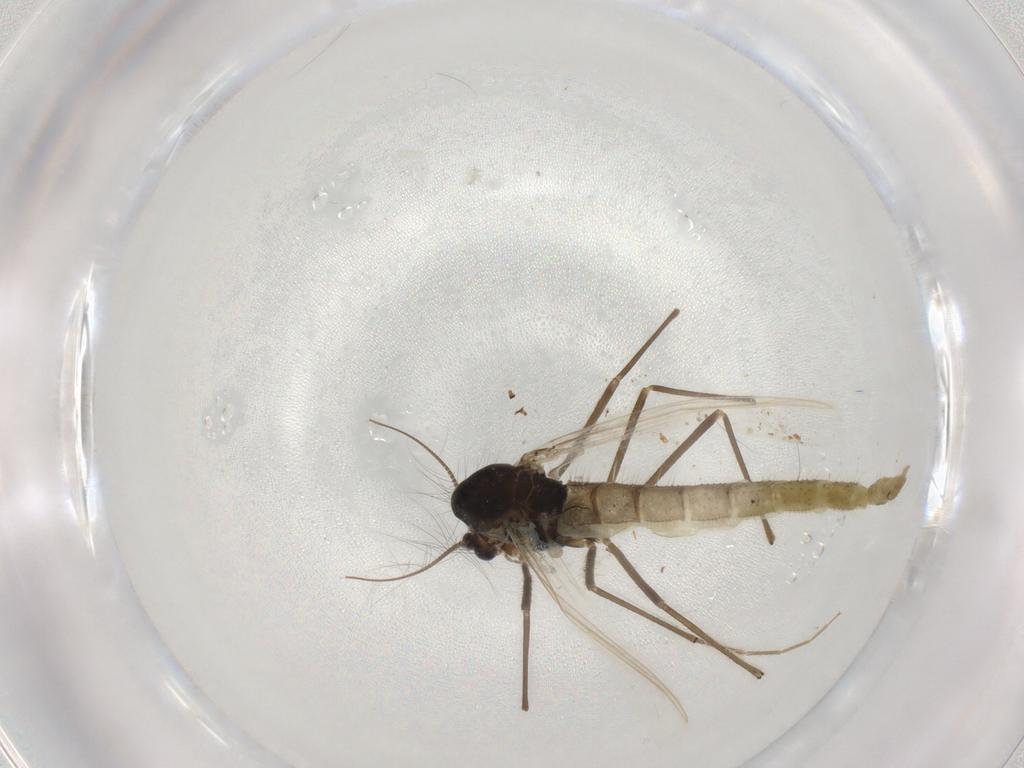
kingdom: Animalia
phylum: Arthropoda
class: Insecta
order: Diptera
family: Chironomidae
